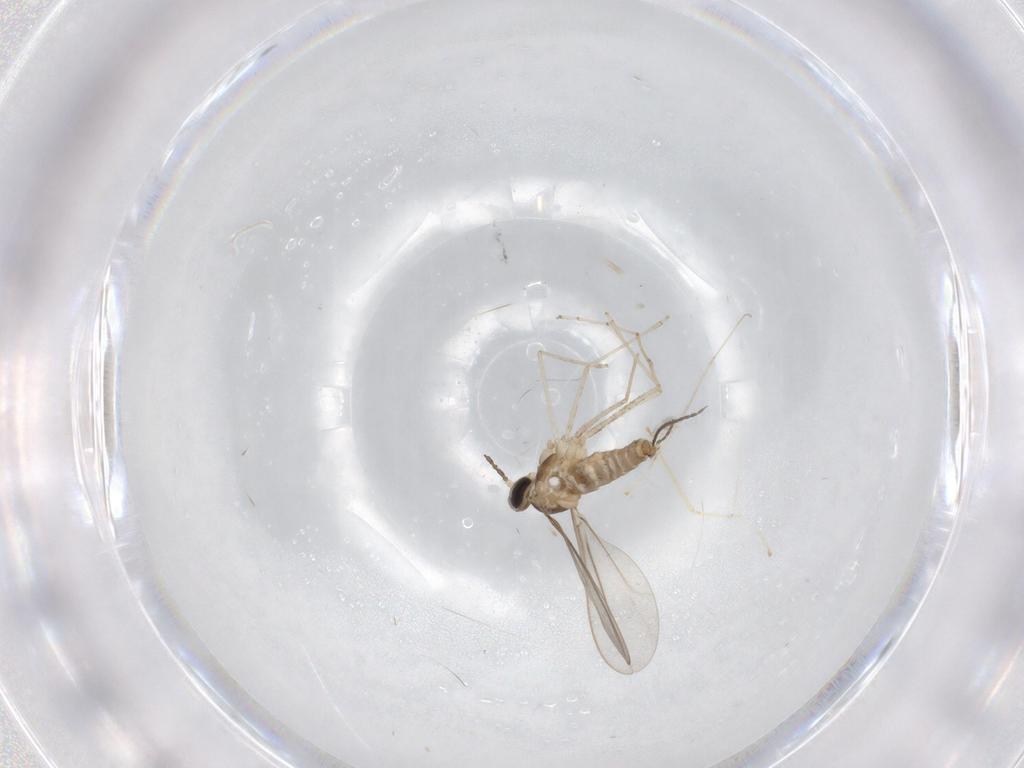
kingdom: Animalia
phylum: Arthropoda
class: Insecta
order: Diptera
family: Cecidomyiidae
